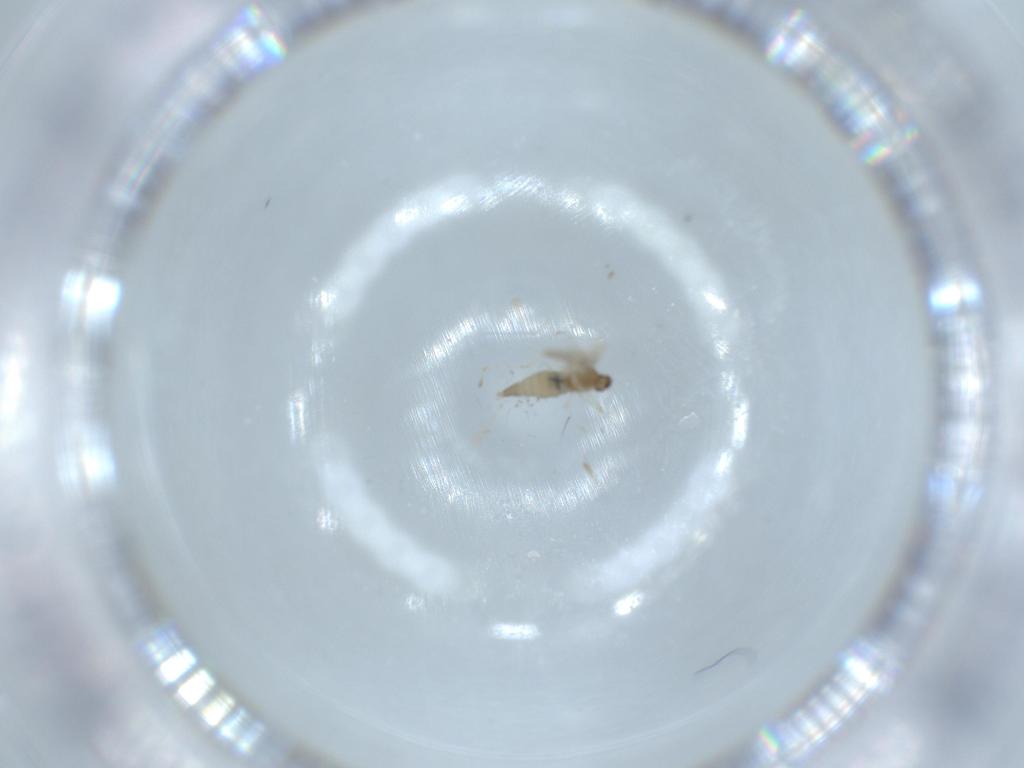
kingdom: Animalia
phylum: Arthropoda
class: Insecta
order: Diptera
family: Cecidomyiidae
